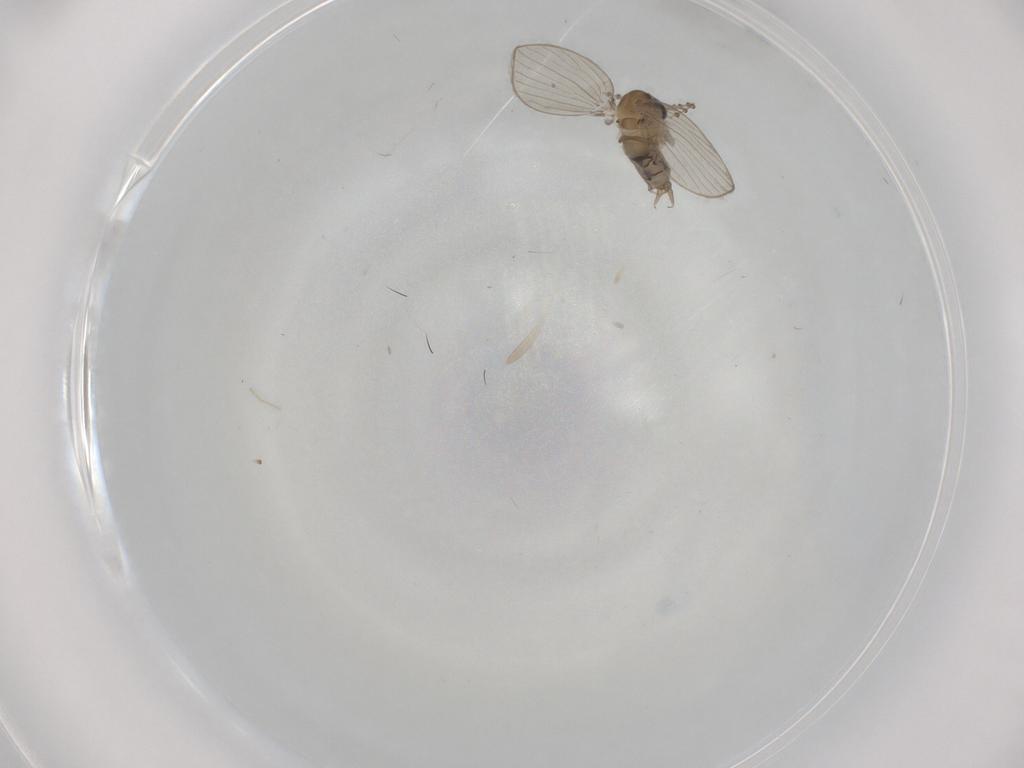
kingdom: Animalia
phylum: Arthropoda
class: Insecta
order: Diptera
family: Psychodidae
